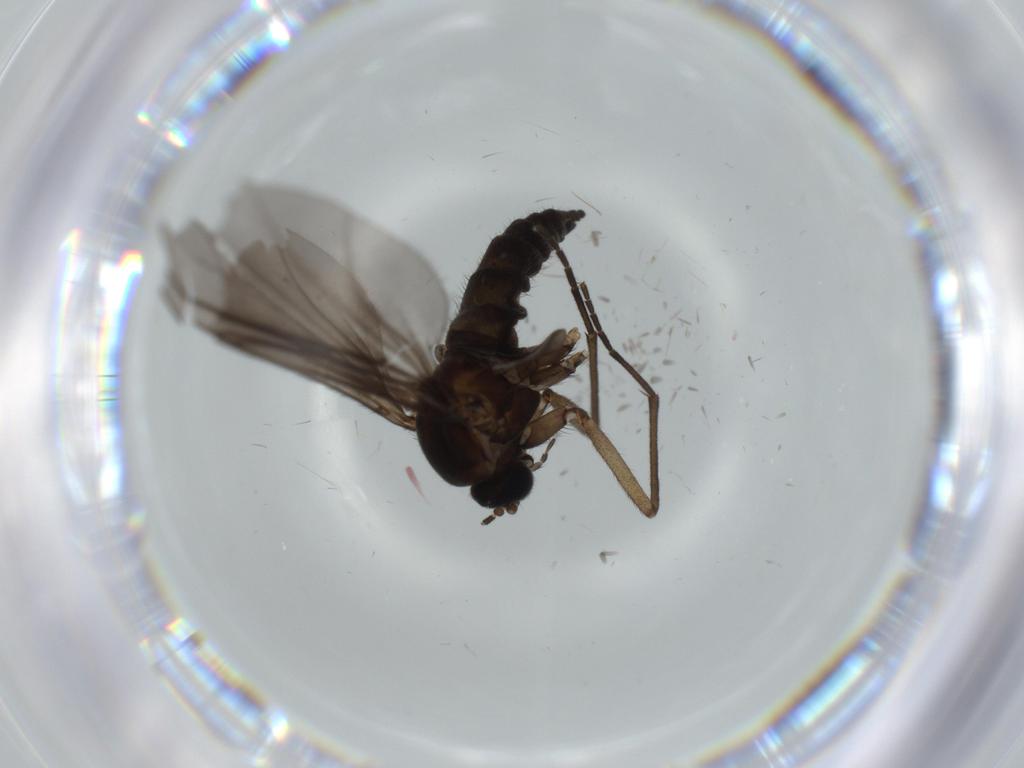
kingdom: Animalia
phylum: Arthropoda
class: Insecta
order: Diptera
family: Sciaridae
